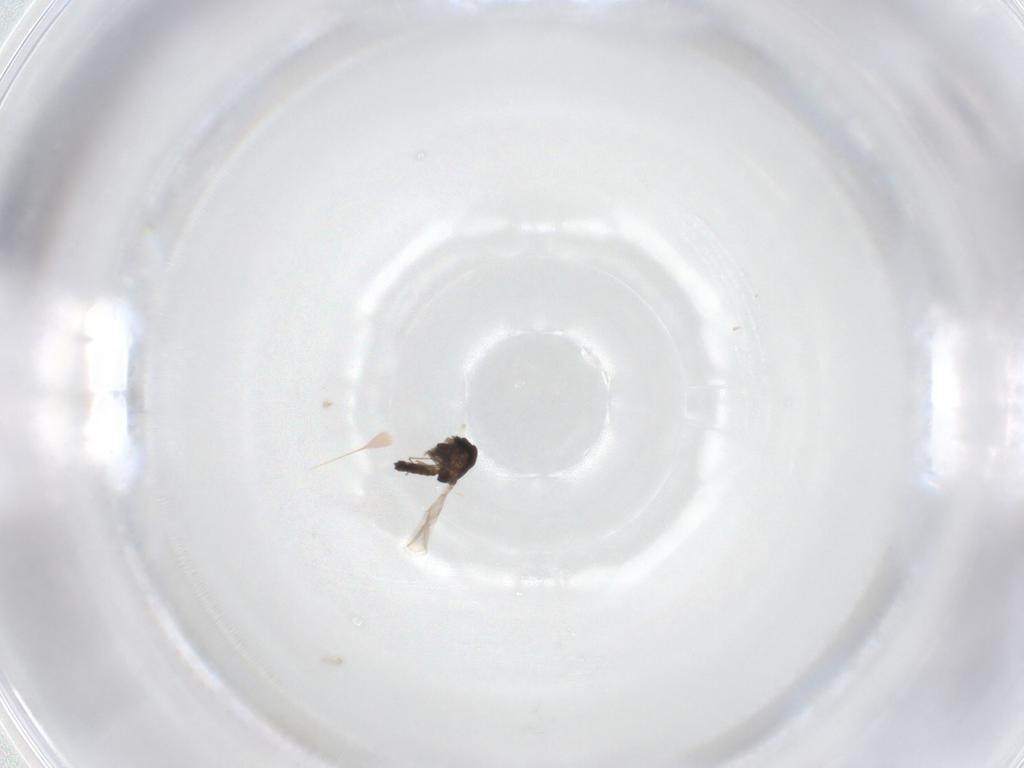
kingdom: Animalia
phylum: Arthropoda
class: Insecta
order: Diptera
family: Chironomidae
